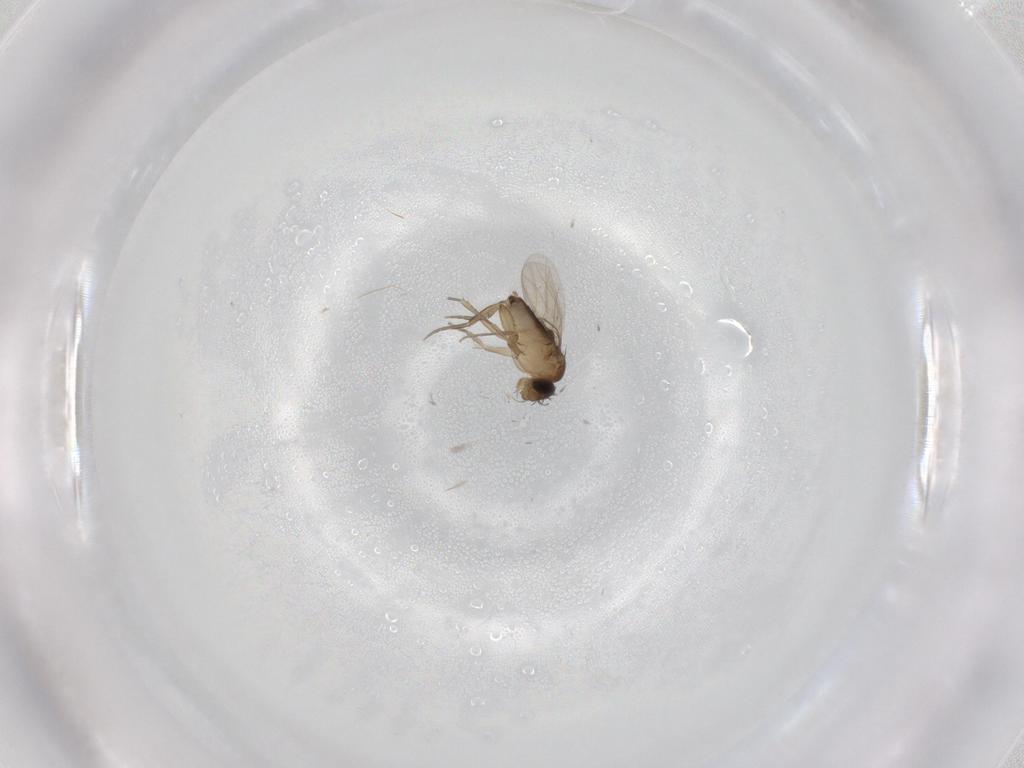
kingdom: Animalia
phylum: Arthropoda
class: Insecta
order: Diptera
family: Phoridae
